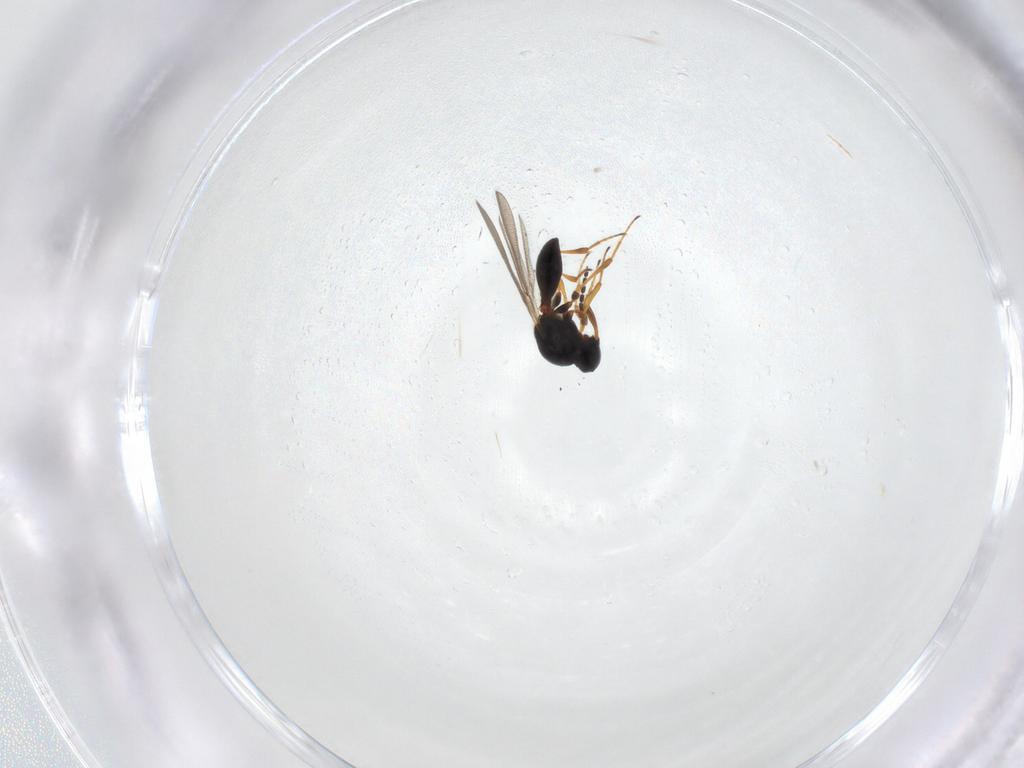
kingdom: Animalia
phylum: Arthropoda
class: Insecta
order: Hymenoptera
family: Platygastridae
